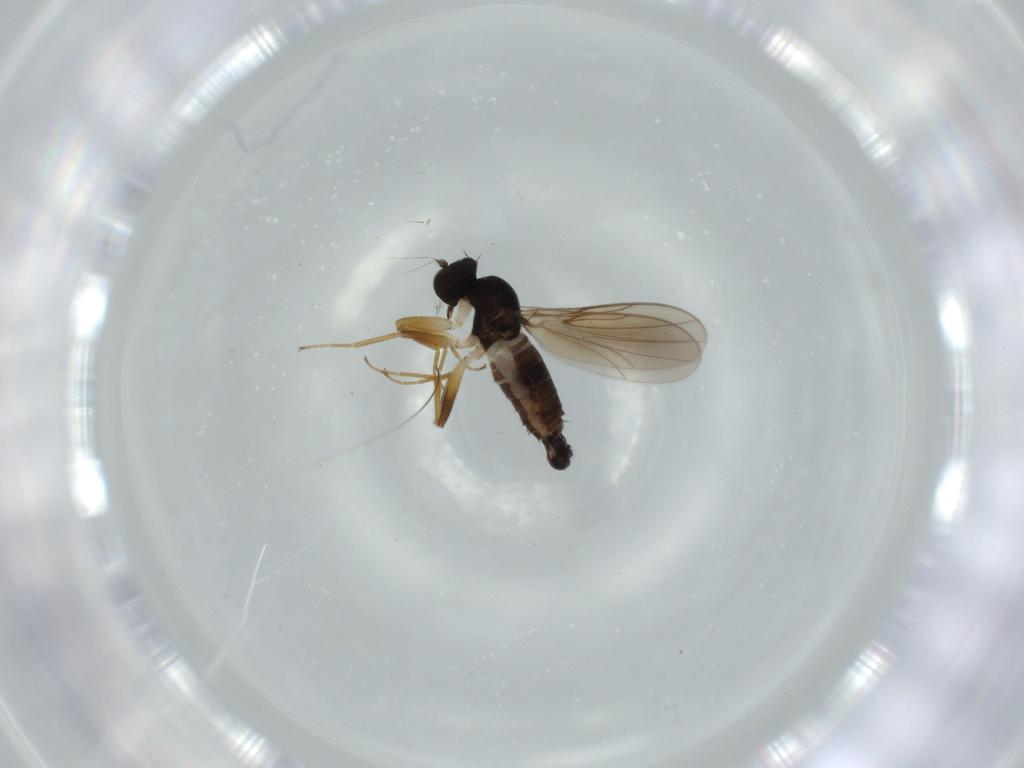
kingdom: Animalia
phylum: Arthropoda
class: Insecta
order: Diptera
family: Hybotidae
